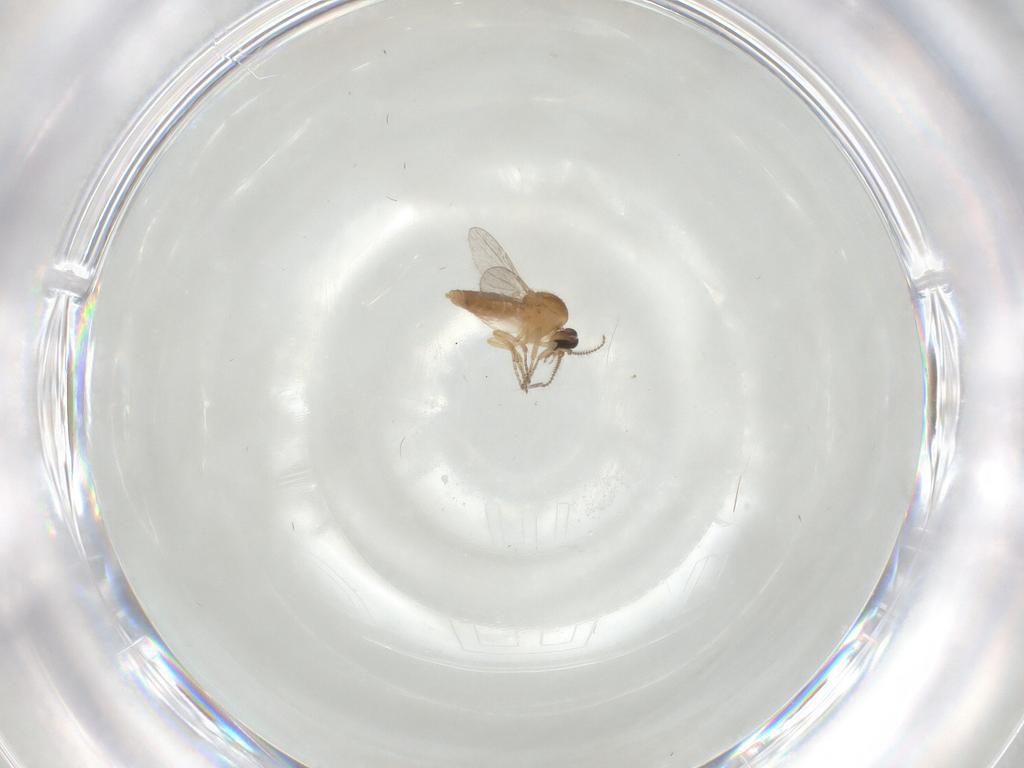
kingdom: Animalia
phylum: Arthropoda
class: Insecta
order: Diptera
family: Ceratopogonidae
